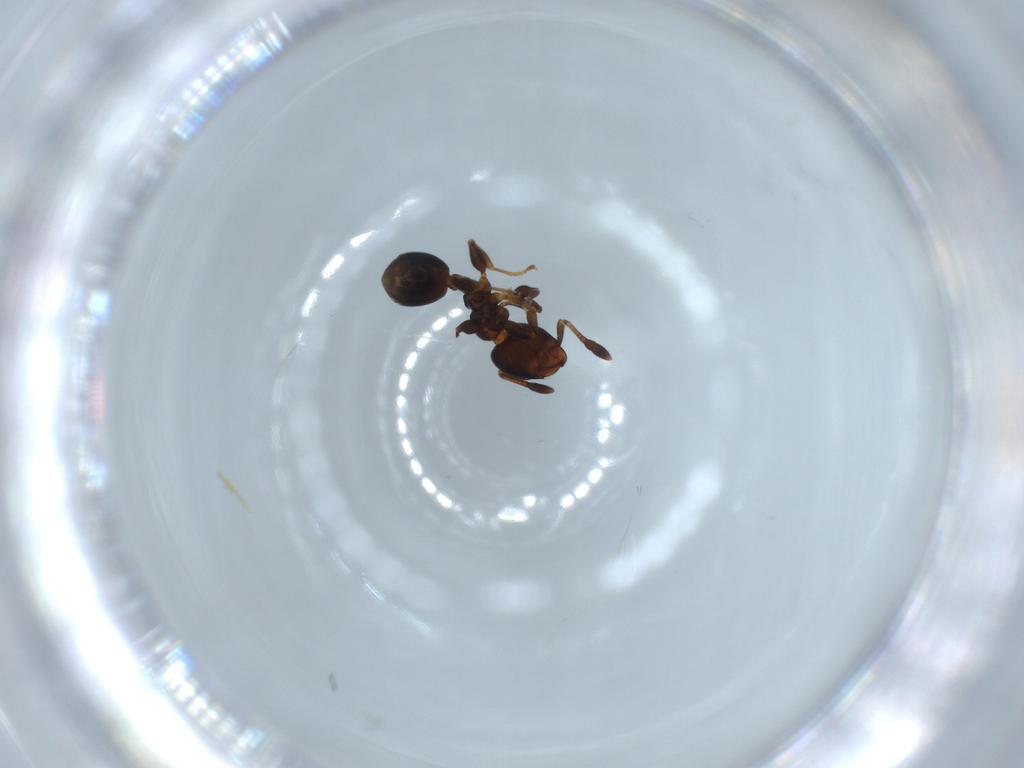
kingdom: Animalia
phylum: Arthropoda
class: Insecta
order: Hymenoptera
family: Formicidae
